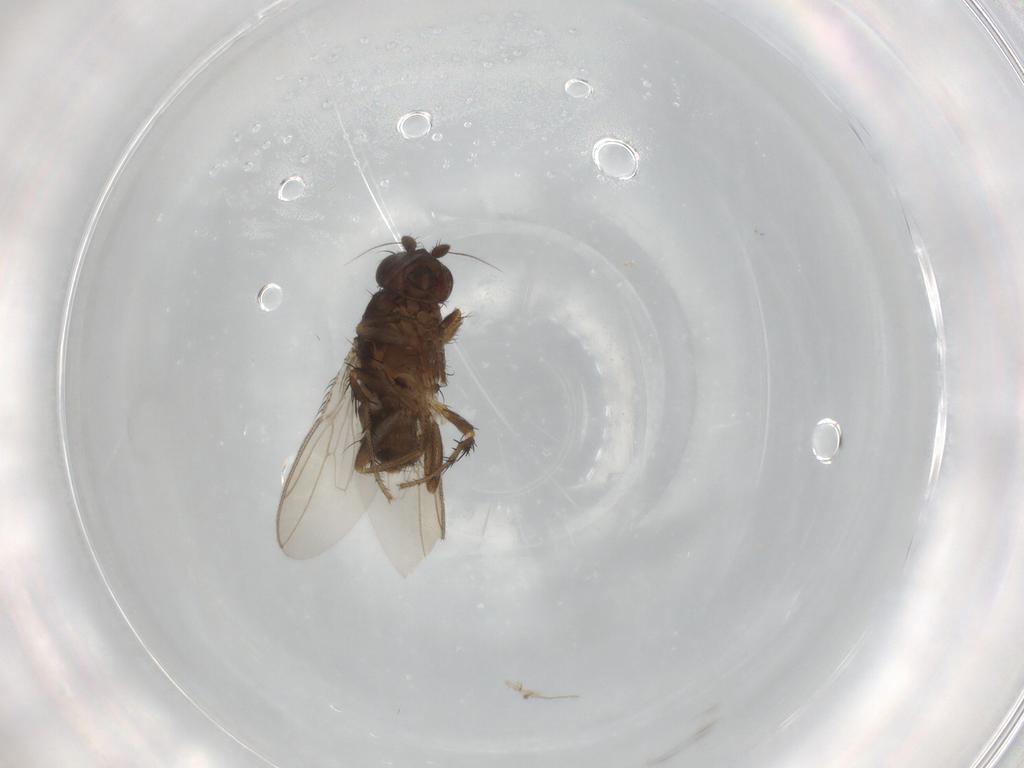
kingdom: Animalia
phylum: Arthropoda
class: Insecta
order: Diptera
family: Sphaeroceridae
